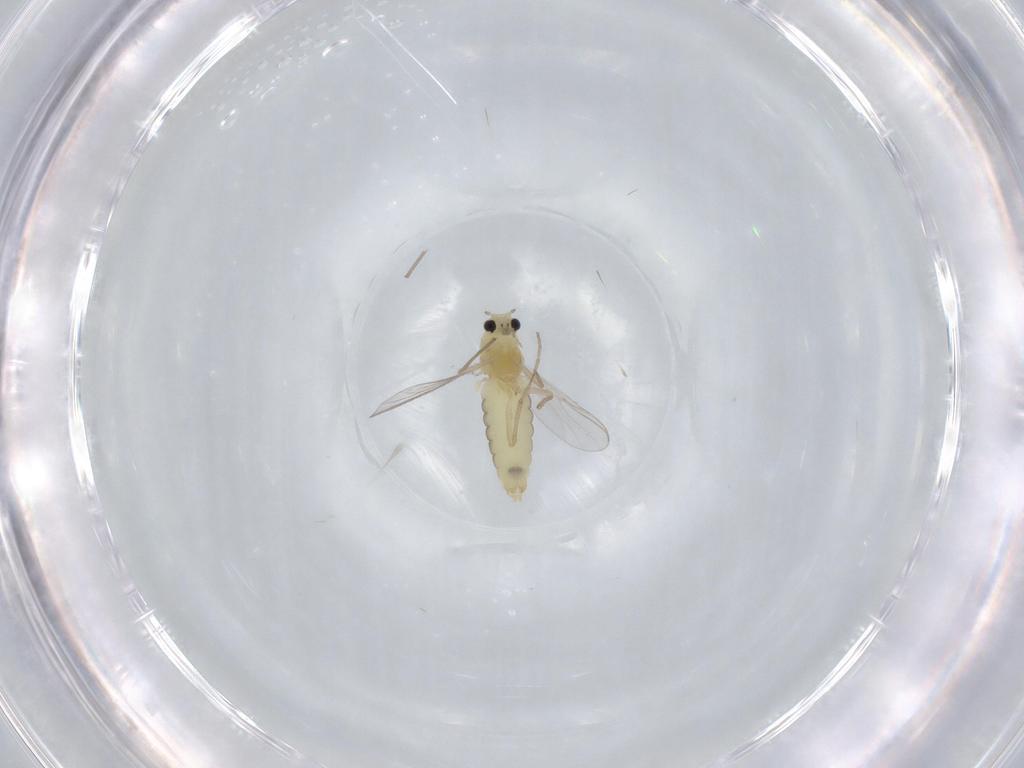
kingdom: Animalia
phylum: Arthropoda
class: Insecta
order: Diptera
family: Chironomidae
